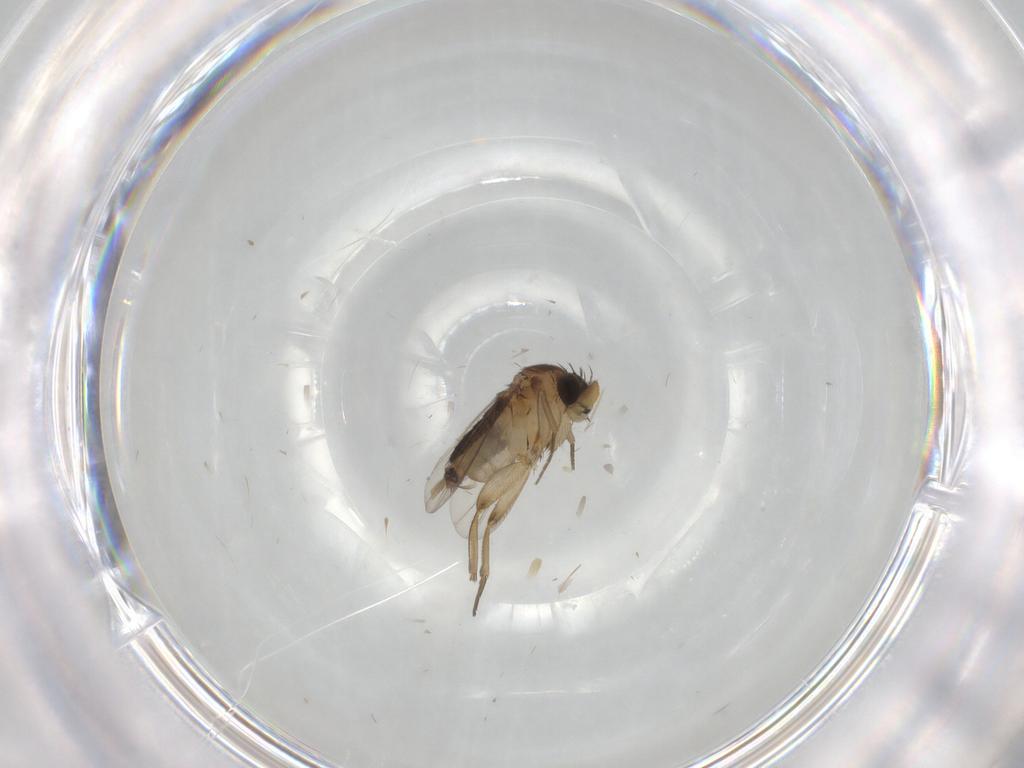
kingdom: Animalia
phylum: Arthropoda
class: Insecta
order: Diptera
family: Phoridae
